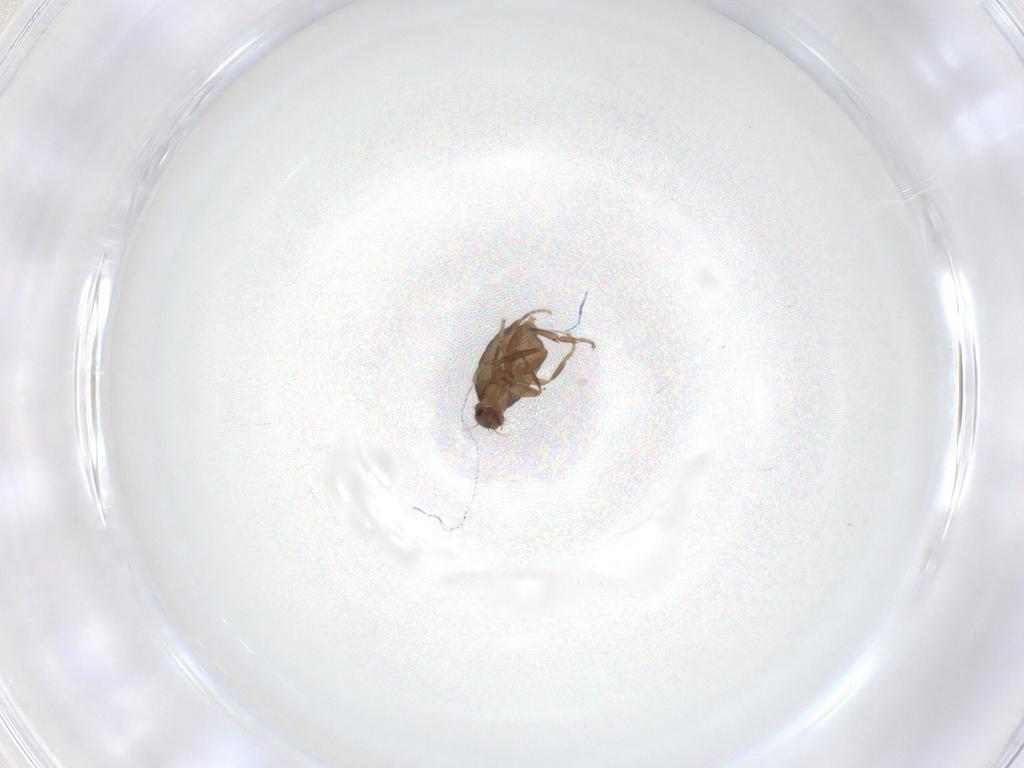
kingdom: Animalia
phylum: Arthropoda
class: Insecta
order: Diptera
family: Phoridae
